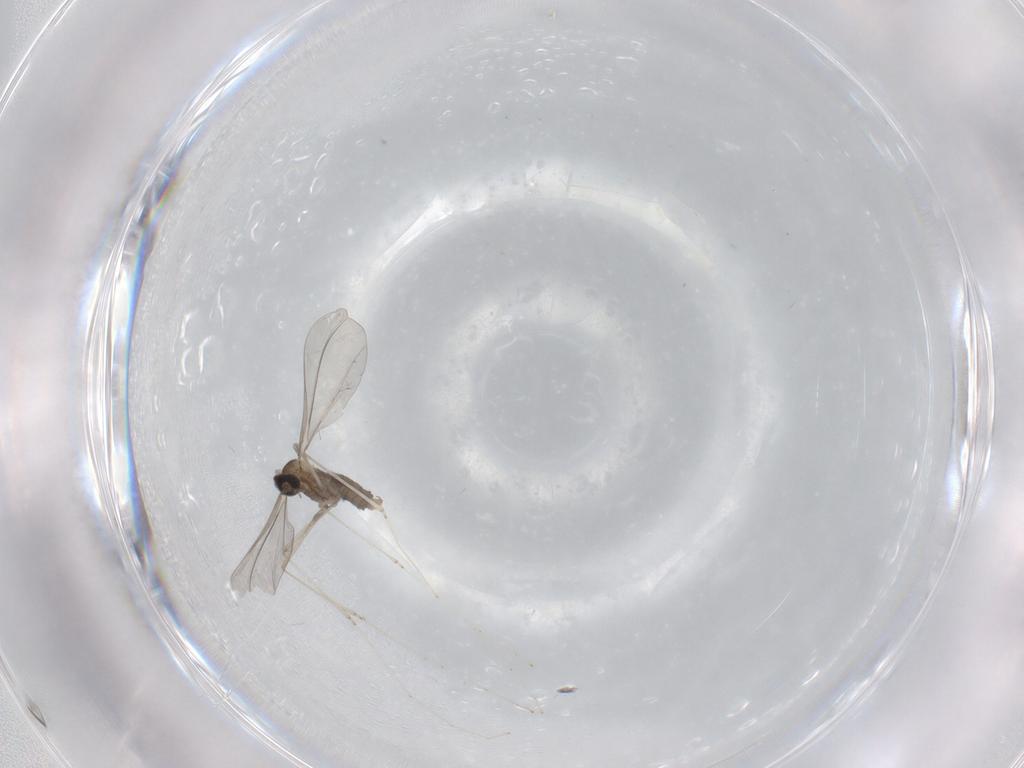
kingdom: Animalia
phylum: Arthropoda
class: Insecta
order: Diptera
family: Cecidomyiidae
